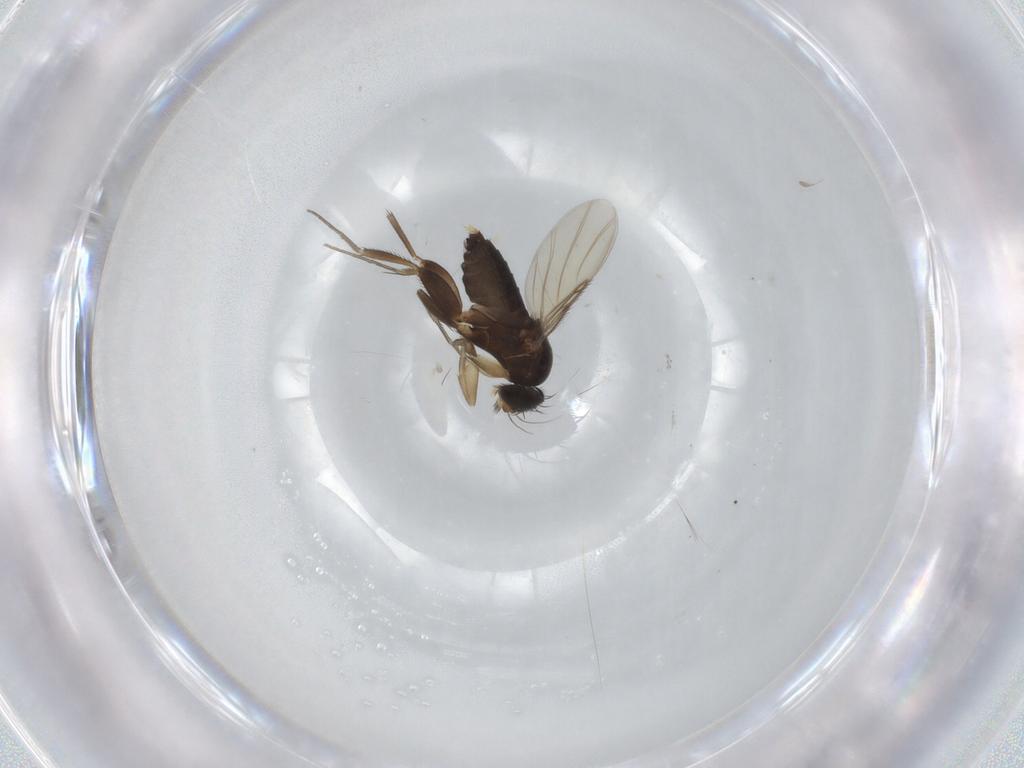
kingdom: Animalia
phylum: Arthropoda
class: Insecta
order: Diptera
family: Phoridae
